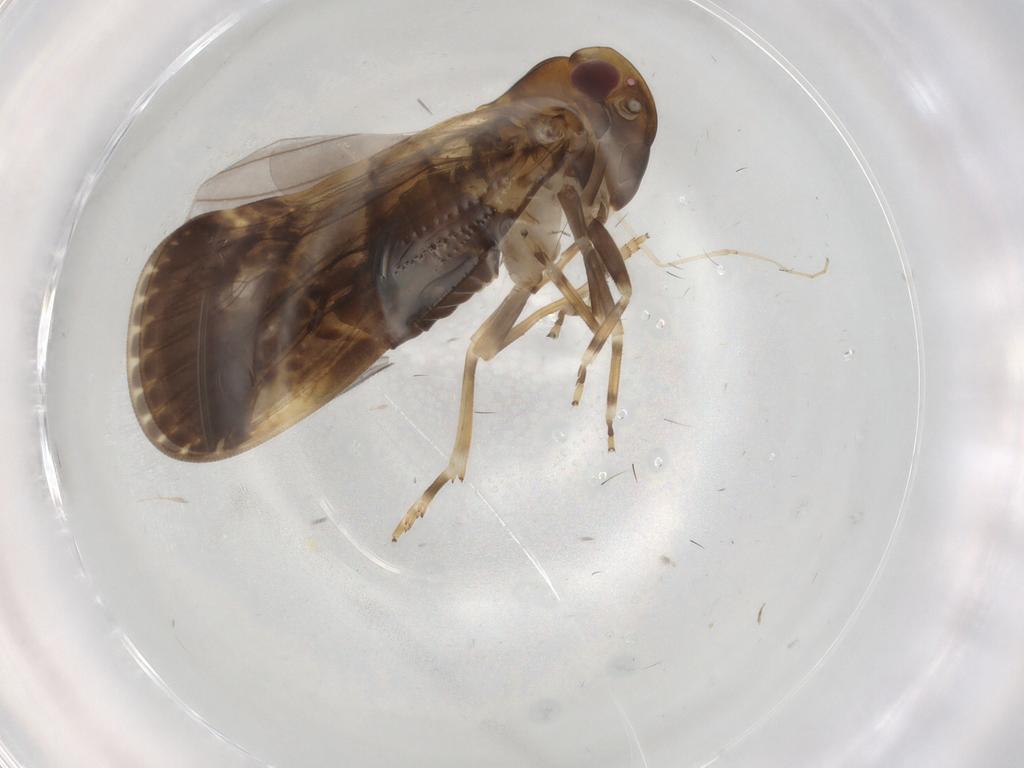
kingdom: Animalia
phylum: Arthropoda
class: Insecta
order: Hemiptera
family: Cixiidae
